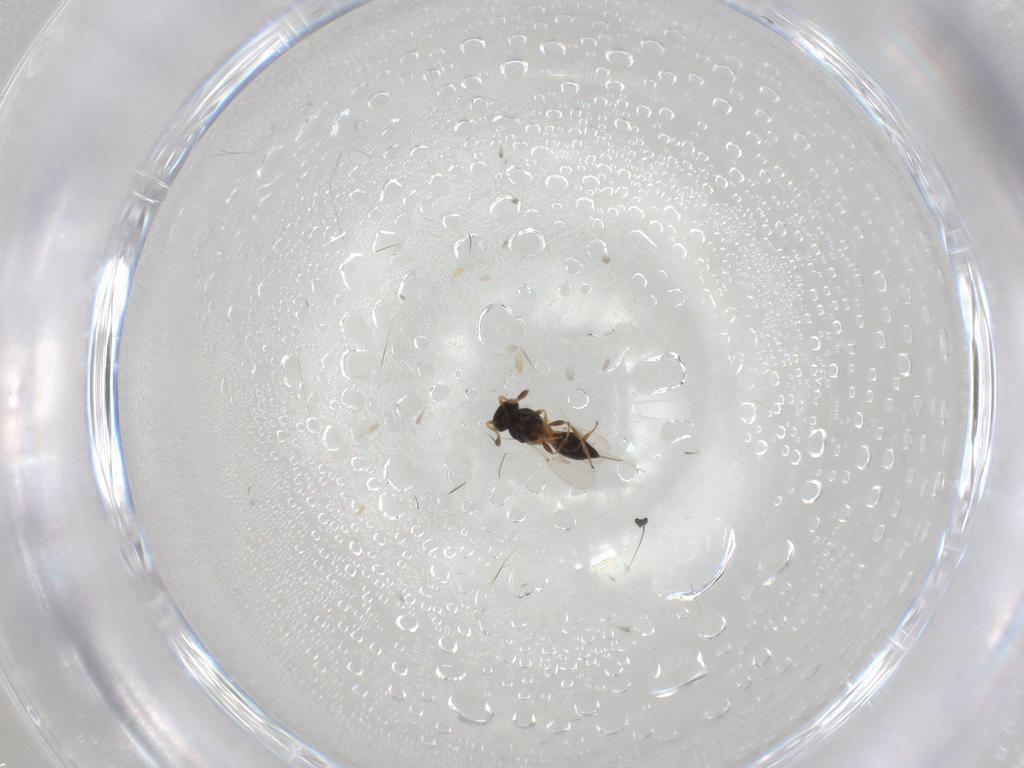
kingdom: Animalia
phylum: Arthropoda
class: Insecta
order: Hymenoptera
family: Platygastridae
